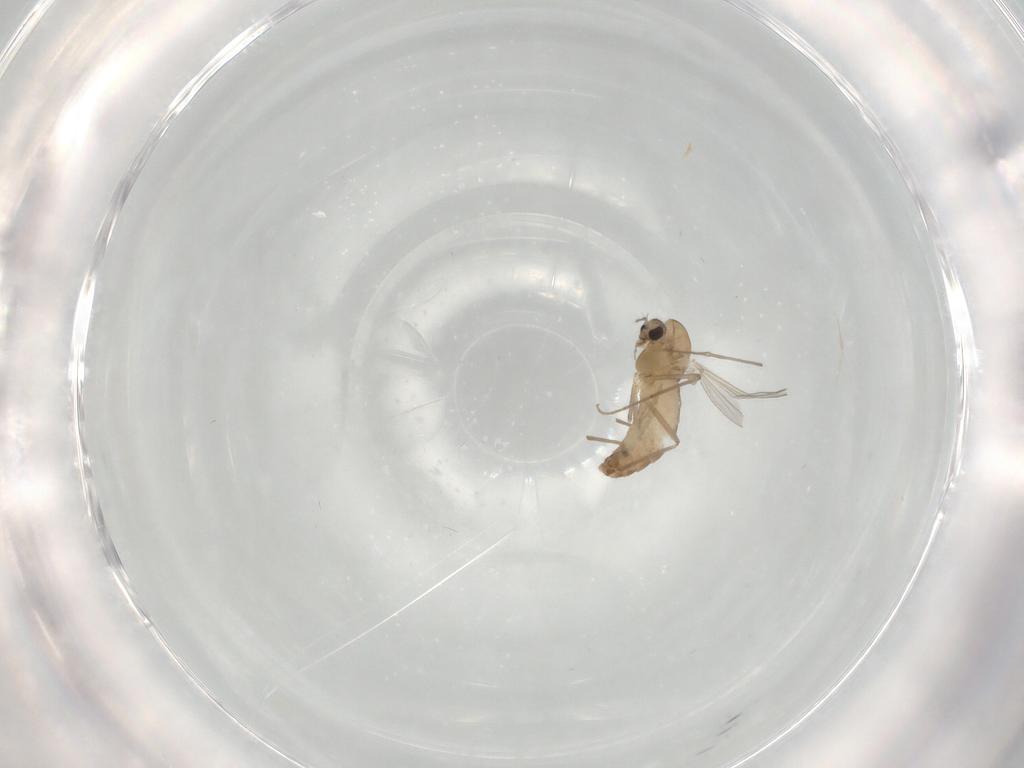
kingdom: Animalia
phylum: Arthropoda
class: Insecta
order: Diptera
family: Chironomidae
